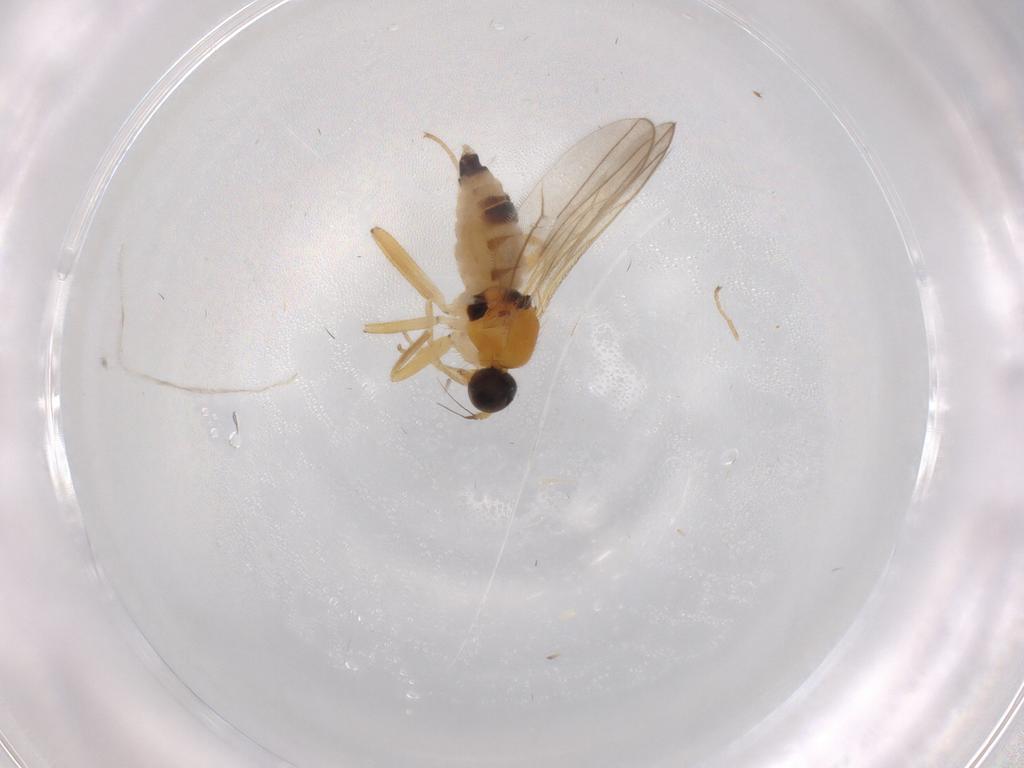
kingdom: Animalia
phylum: Arthropoda
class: Insecta
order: Diptera
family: Hybotidae
